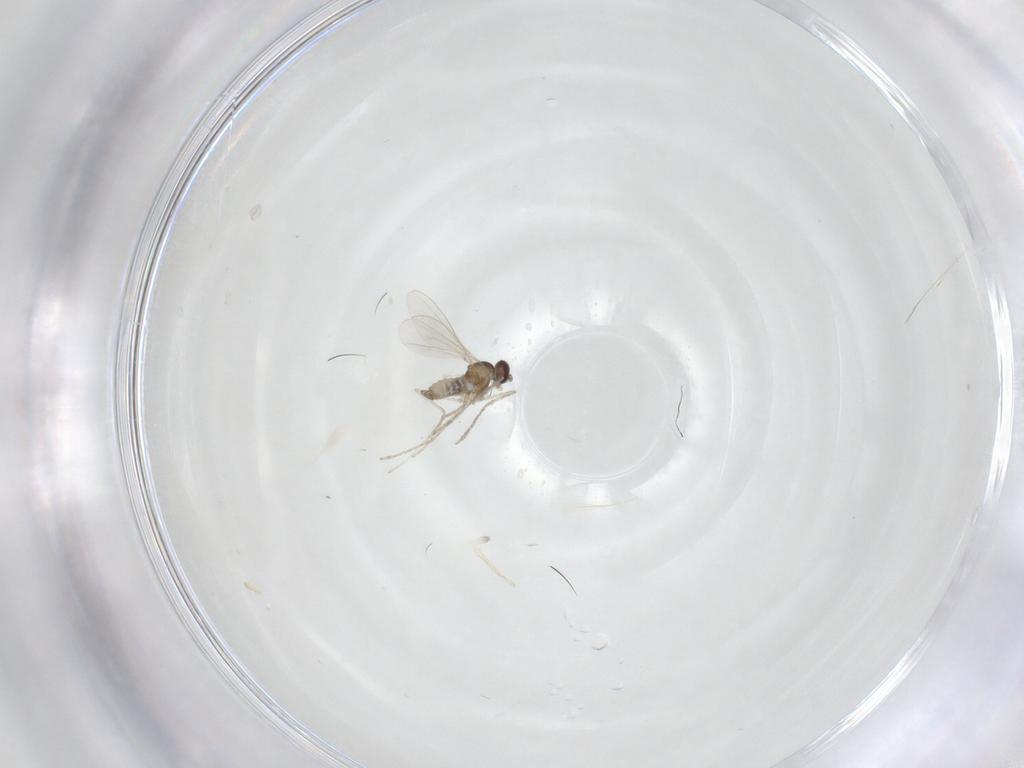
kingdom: Animalia
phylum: Arthropoda
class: Insecta
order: Diptera
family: Cecidomyiidae
